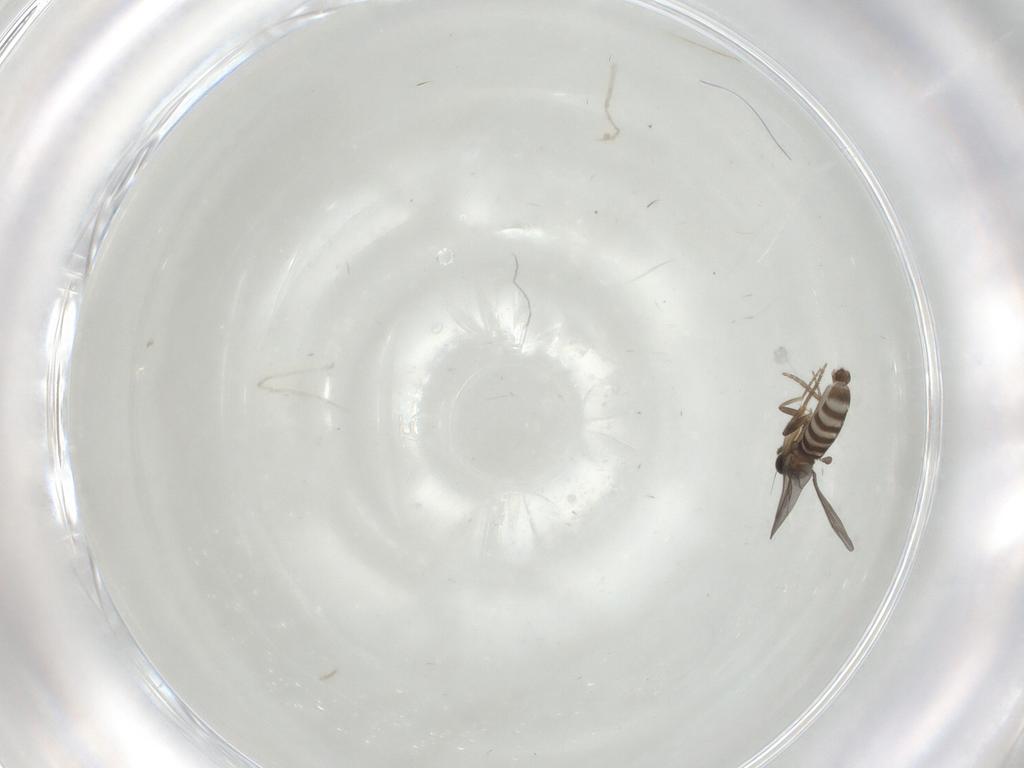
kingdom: Animalia
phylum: Arthropoda
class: Insecta
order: Diptera
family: Phoridae
